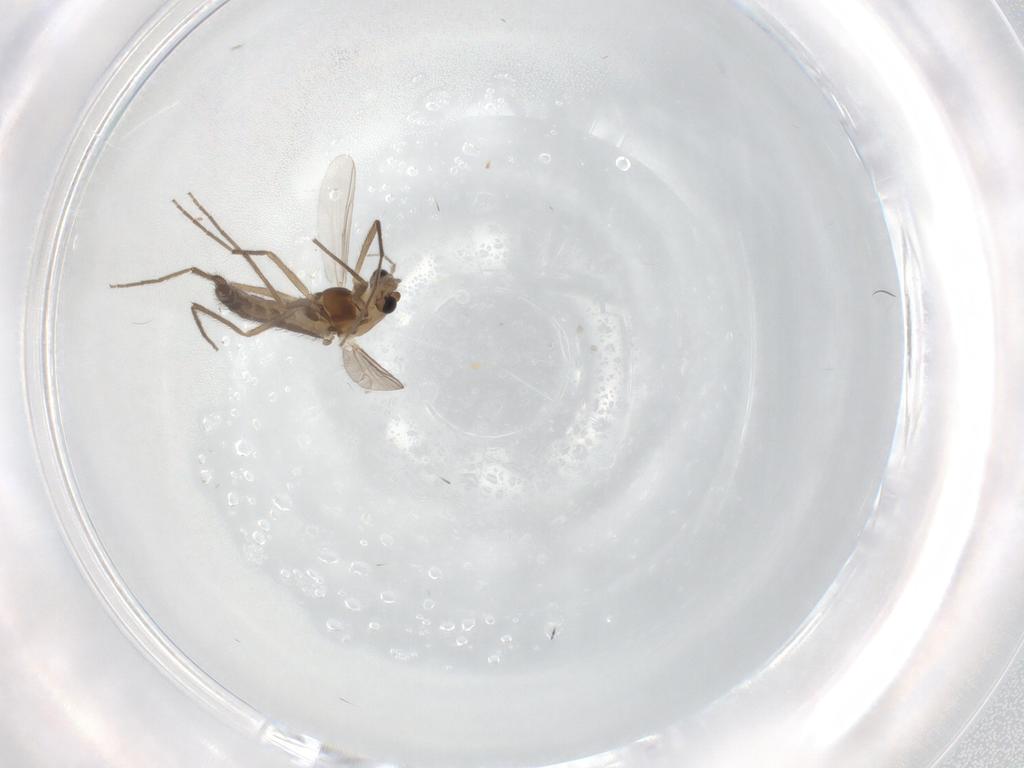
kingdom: Animalia
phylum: Arthropoda
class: Insecta
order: Diptera
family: Chironomidae
